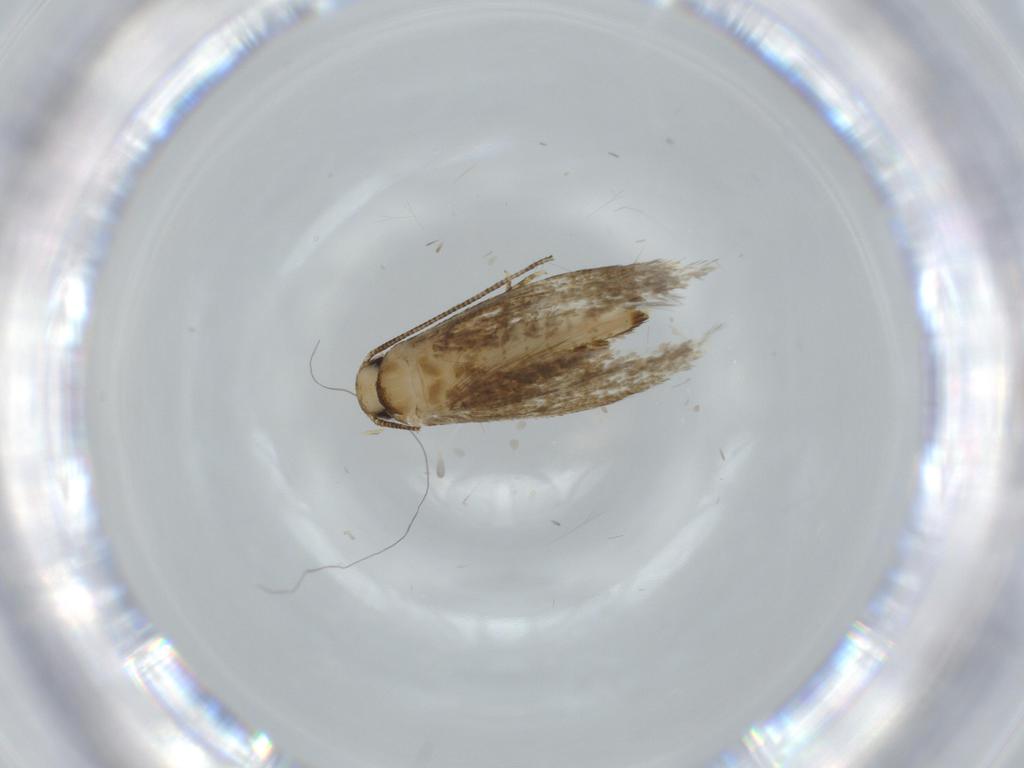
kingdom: Animalia
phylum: Arthropoda
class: Insecta
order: Lepidoptera
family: Tineidae
